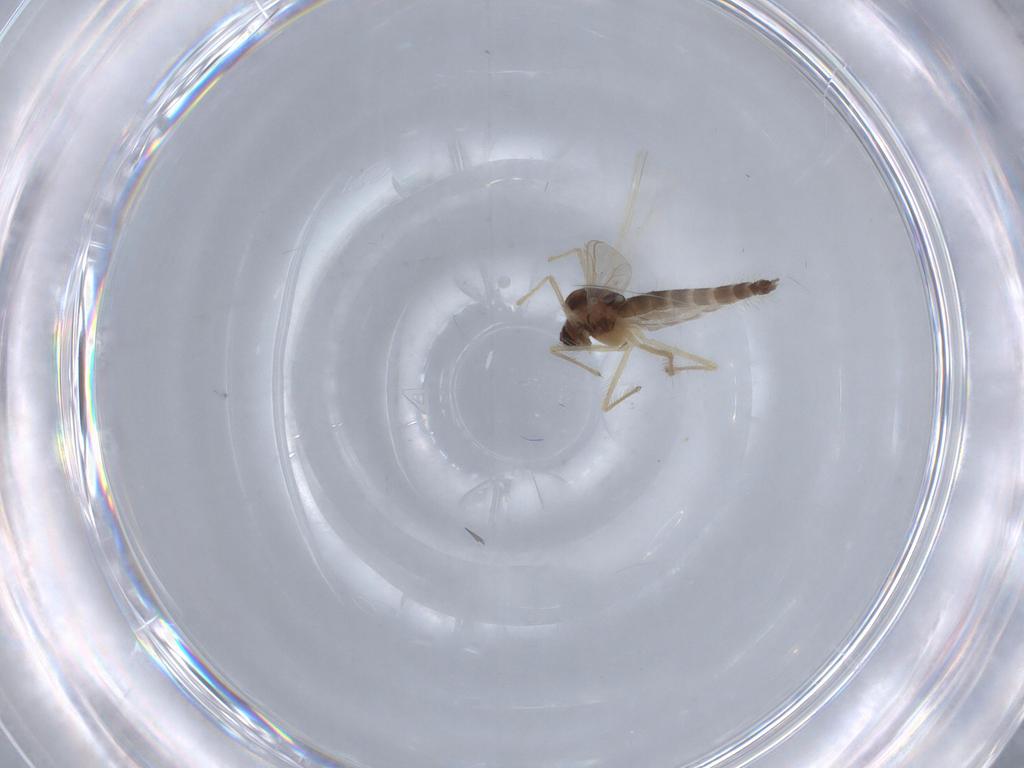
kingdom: Animalia
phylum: Arthropoda
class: Insecta
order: Diptera
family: Chironomidae
